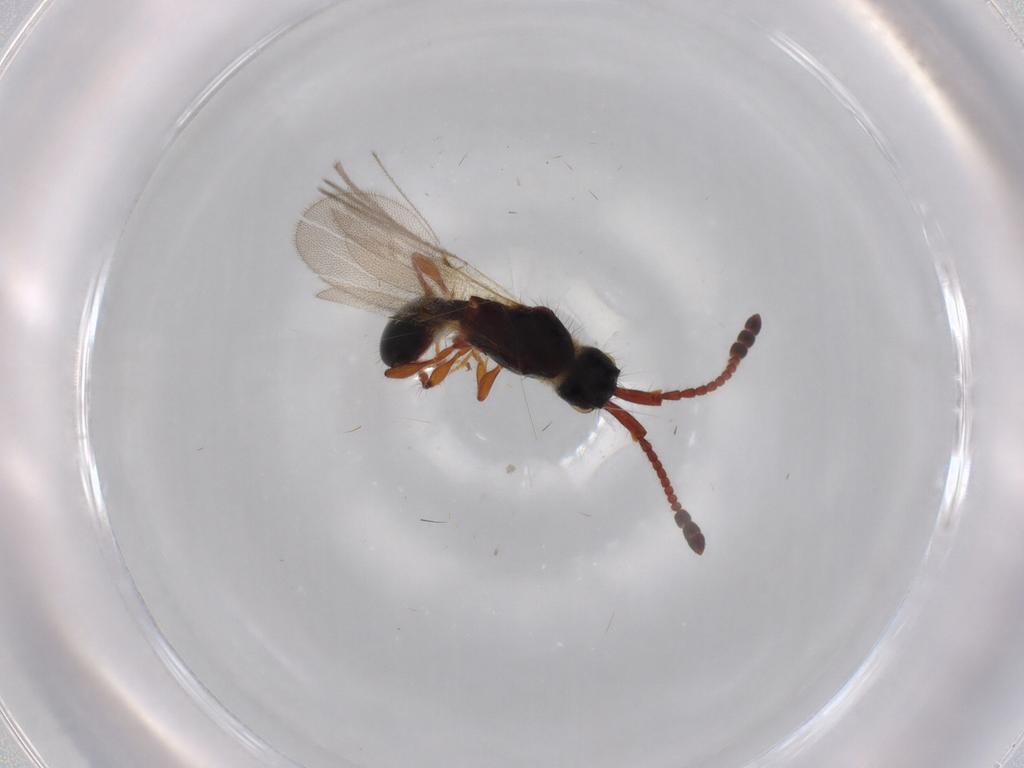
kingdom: Animalia
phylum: Arthropoda
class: Insecta
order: Hymenoptera
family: Diapriidae
